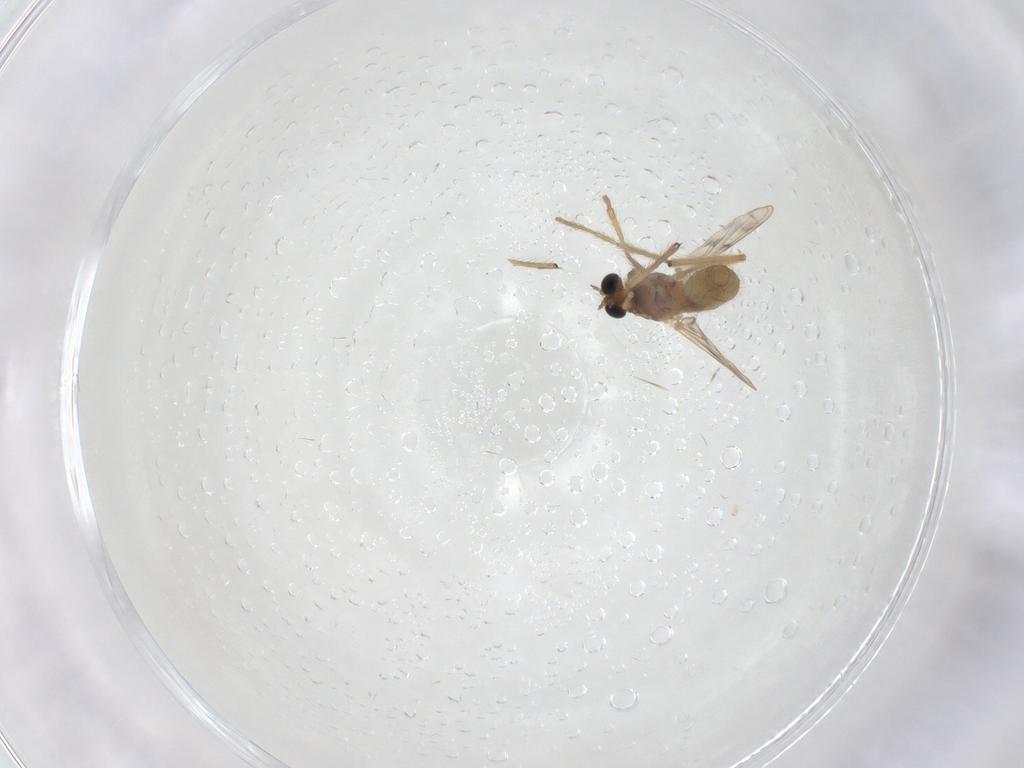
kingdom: Animalia
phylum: Arthropoda
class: Insecta
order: Diptera
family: Chironomidae
